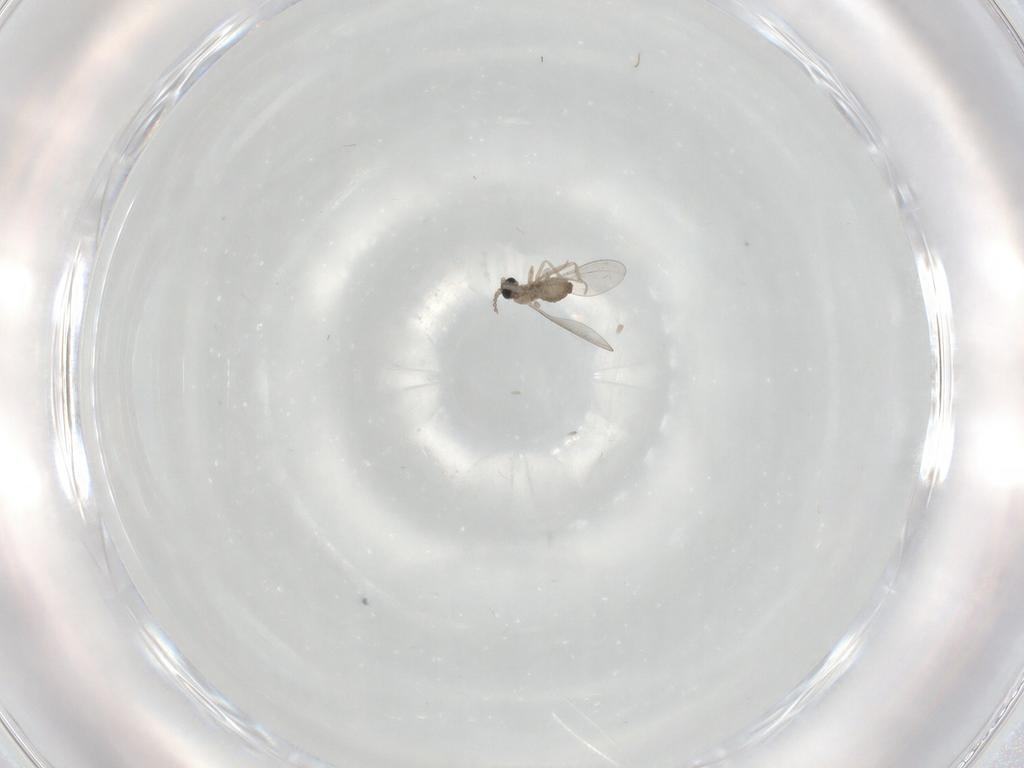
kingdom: Animalia
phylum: Arthropoda
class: Insecta
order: Diptera
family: Cecidomyiidae
